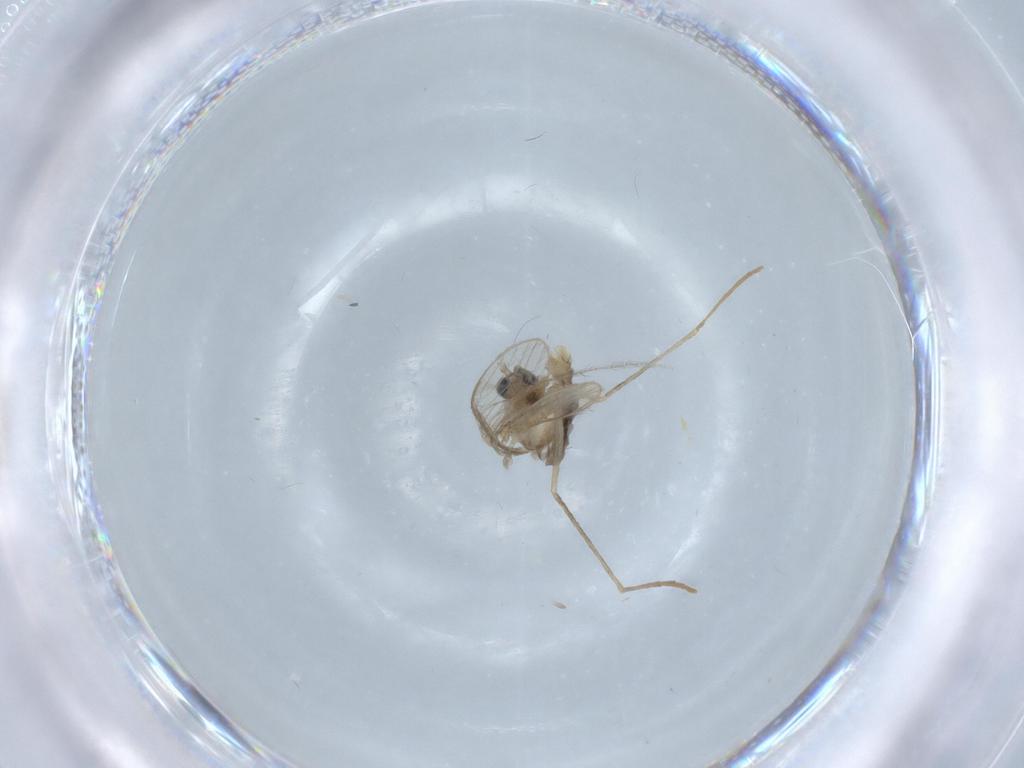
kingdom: Animalia
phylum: Arthropoda
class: Insecta
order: Diptera
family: Psychodidae
